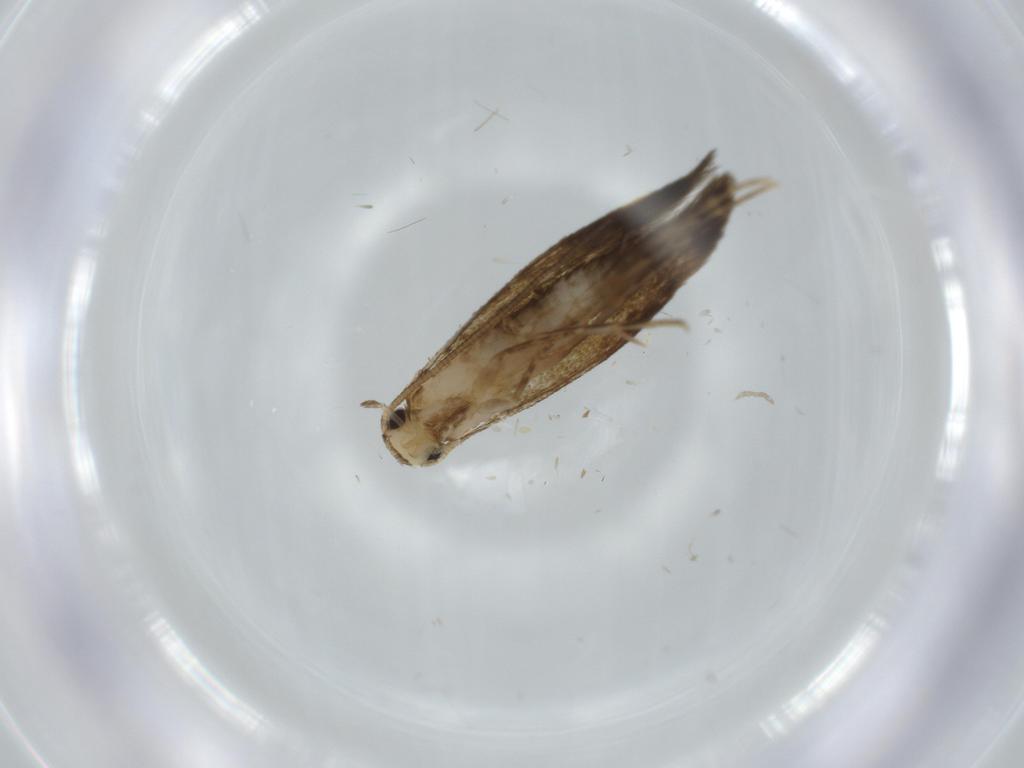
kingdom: Animalia
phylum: Arthropoda
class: Insecta
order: Lepidoptera
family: Tineidae
